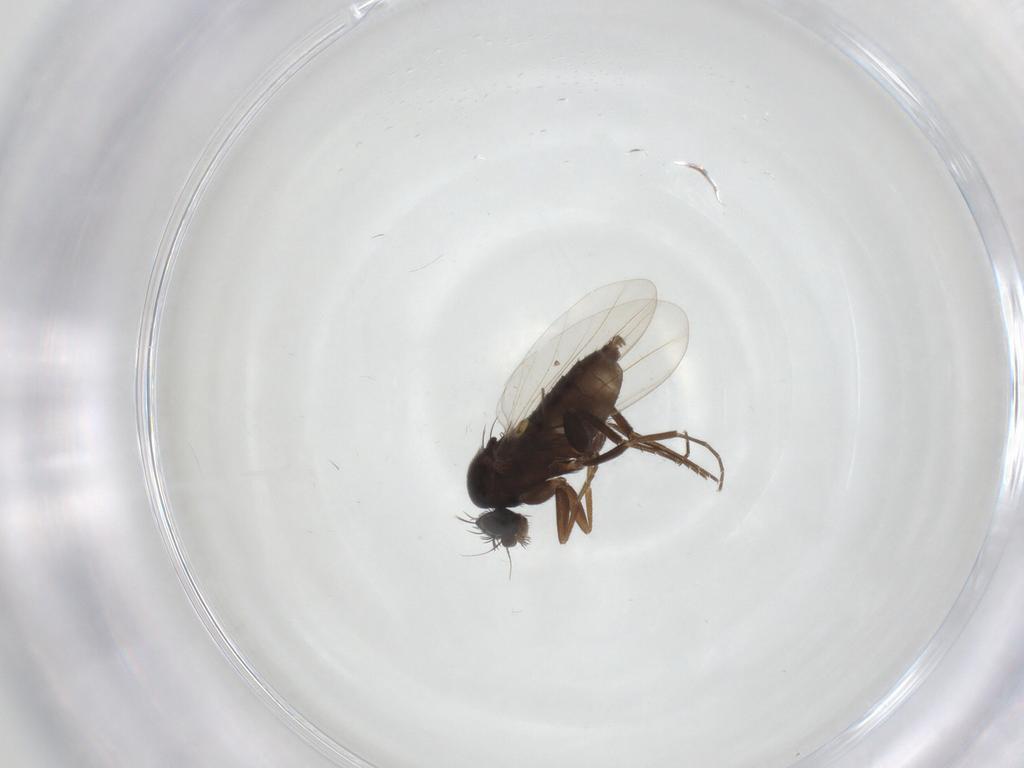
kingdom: Animalia
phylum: Arthropoda
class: Insecta
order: Diptera
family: Phoridae
